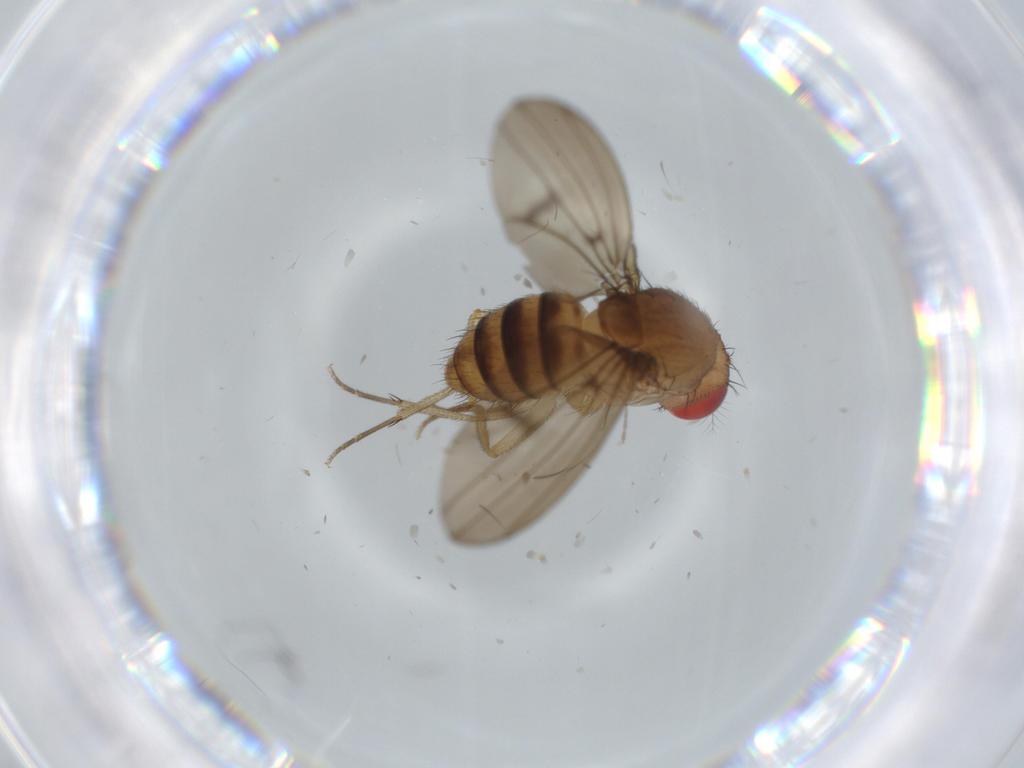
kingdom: Animalia
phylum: Arthropoda
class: Insecta
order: Diptera
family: Drosophilidae
